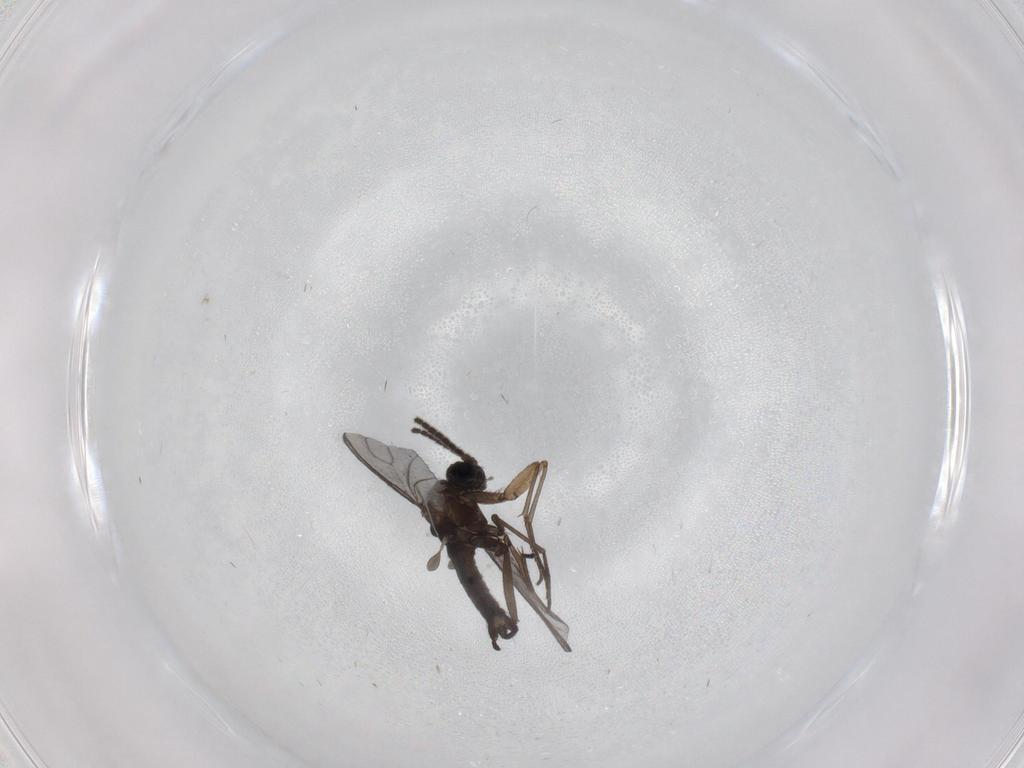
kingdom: Animalia
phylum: Arthropoda
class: Insecta
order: Diptera
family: Sciaridae
